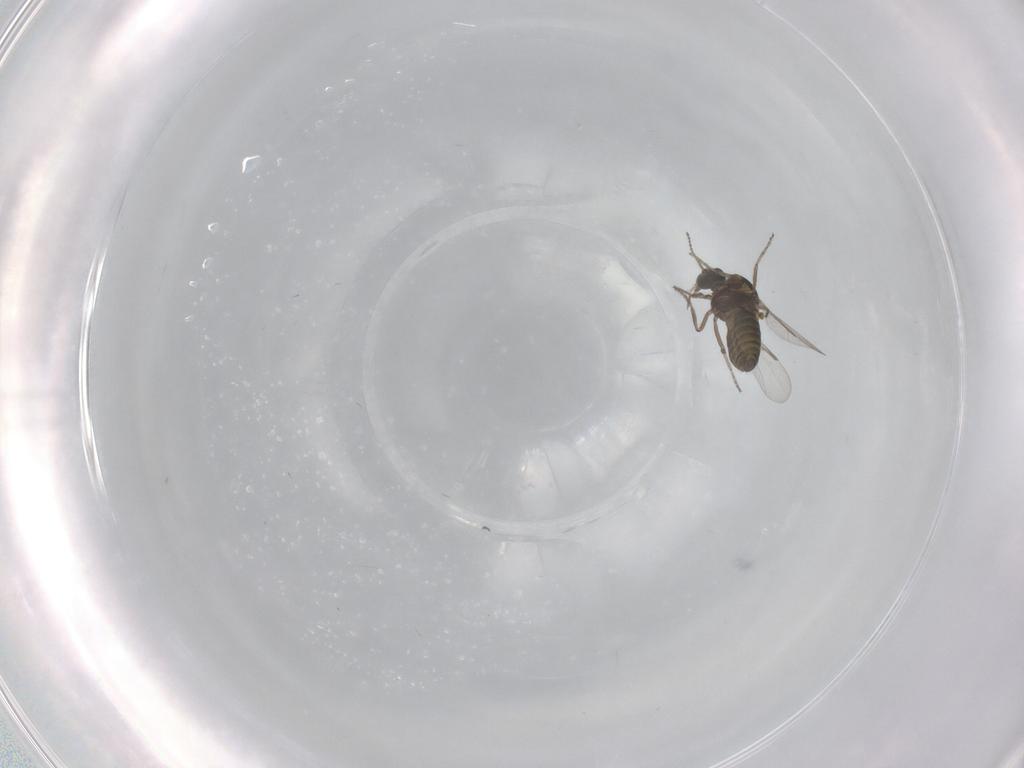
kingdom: Animalia
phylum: Arthropoda
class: Insecta
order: Diptera
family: Ceratopogonidae
